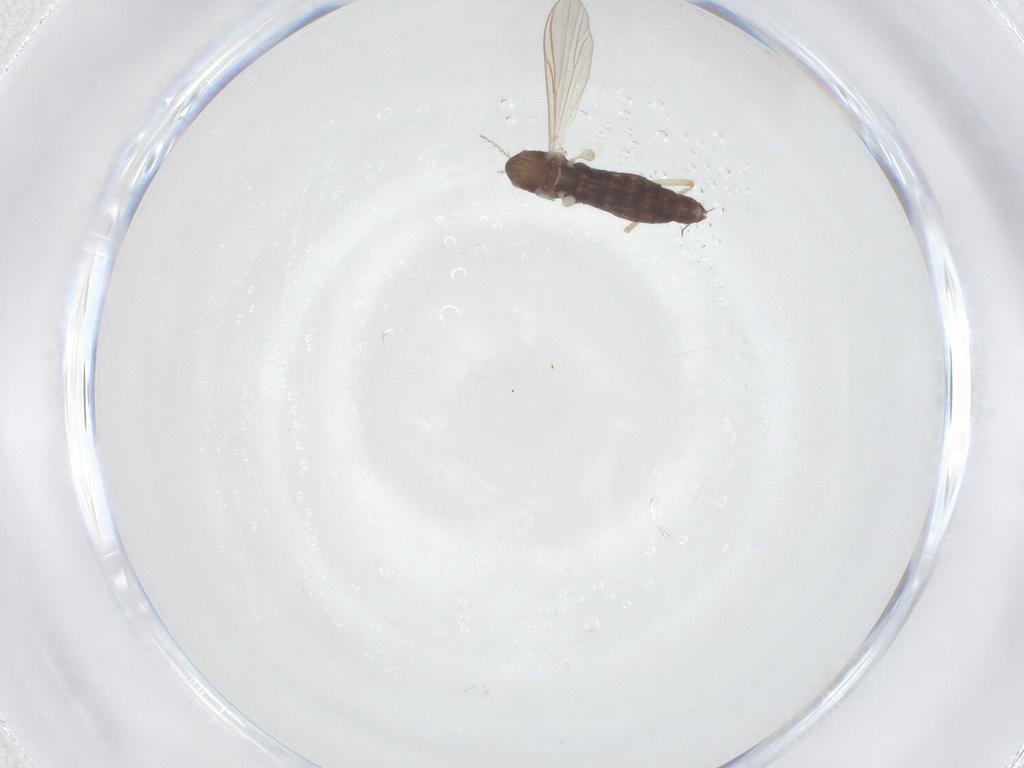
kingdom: Animalia
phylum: Arthropoda
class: Insecta
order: Diptera
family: Chironomidae
